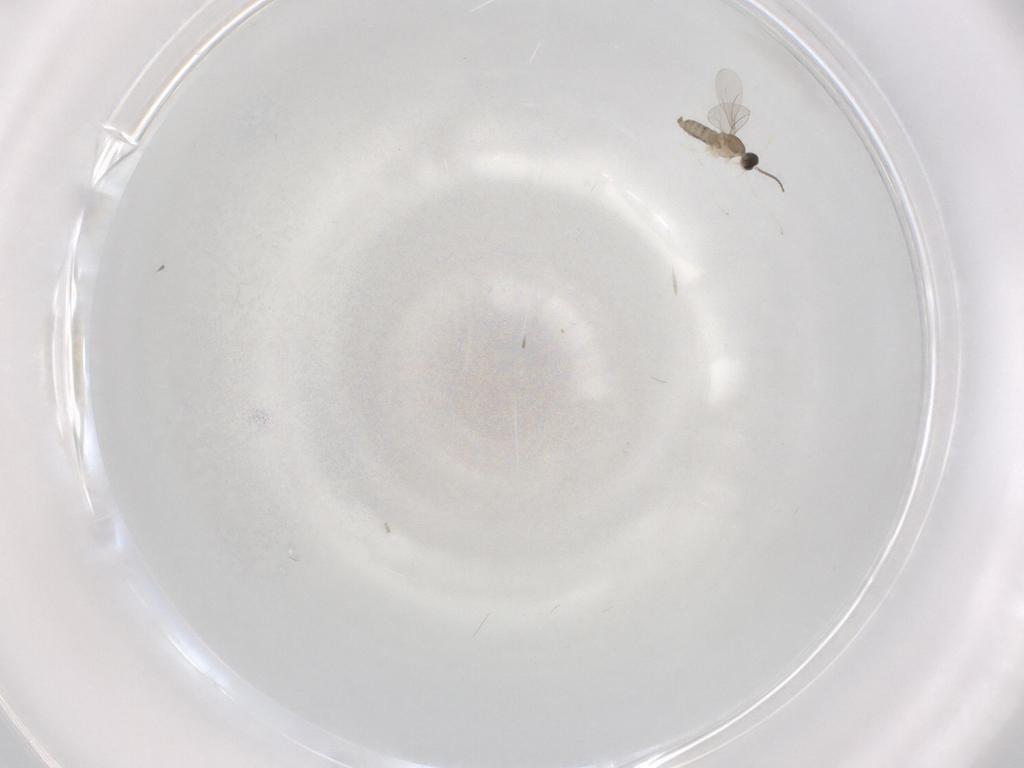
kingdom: Animalia
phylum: Arthropoda
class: Insecta
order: Diptera
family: Cecidomyiidae
